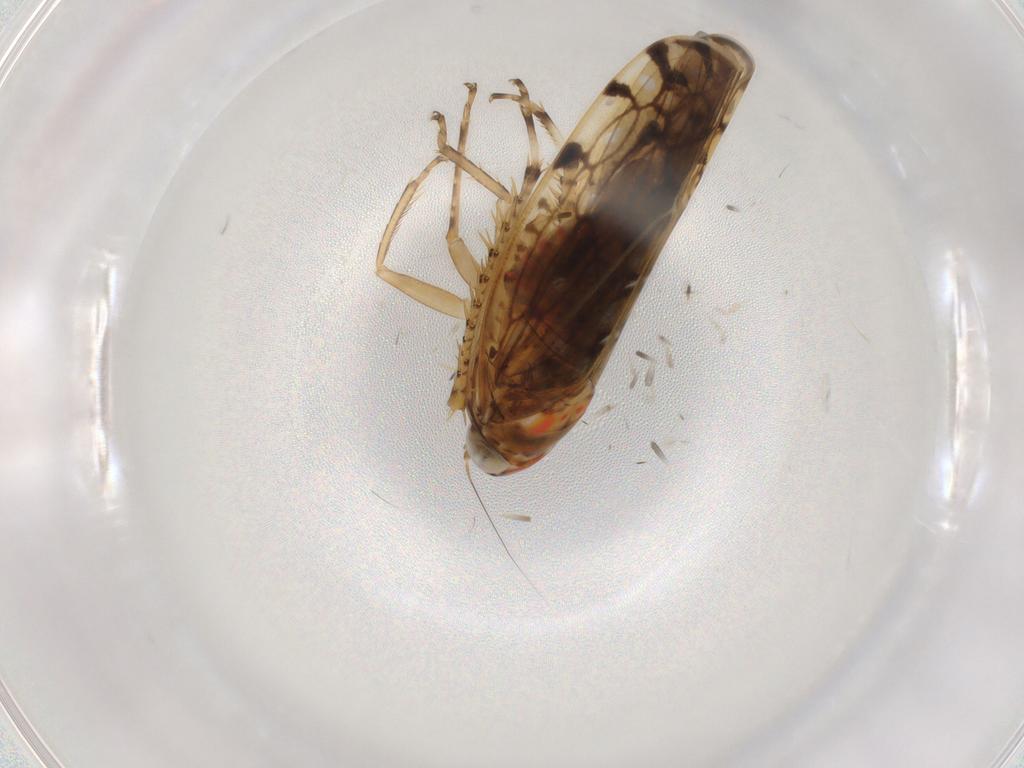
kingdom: Animalia
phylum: Arthropoda
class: Insecta
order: Hemiptera
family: Cicadellidae
